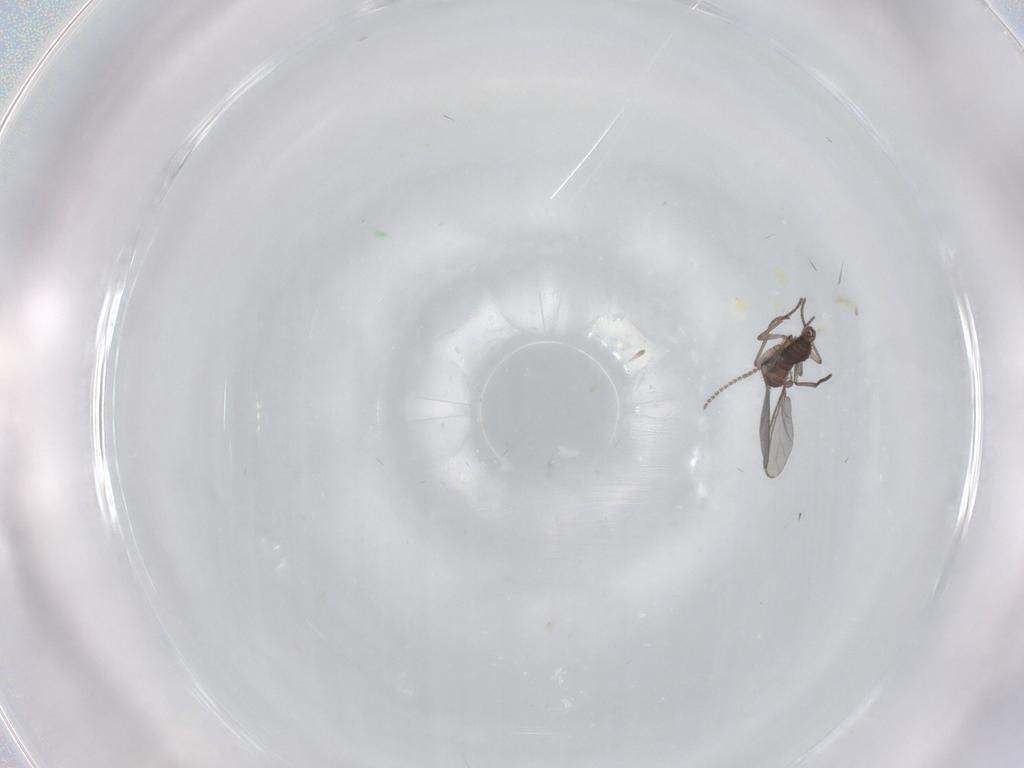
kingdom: Animalia
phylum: Arthropoda
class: Insecta
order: Diptera
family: Sciaridae
